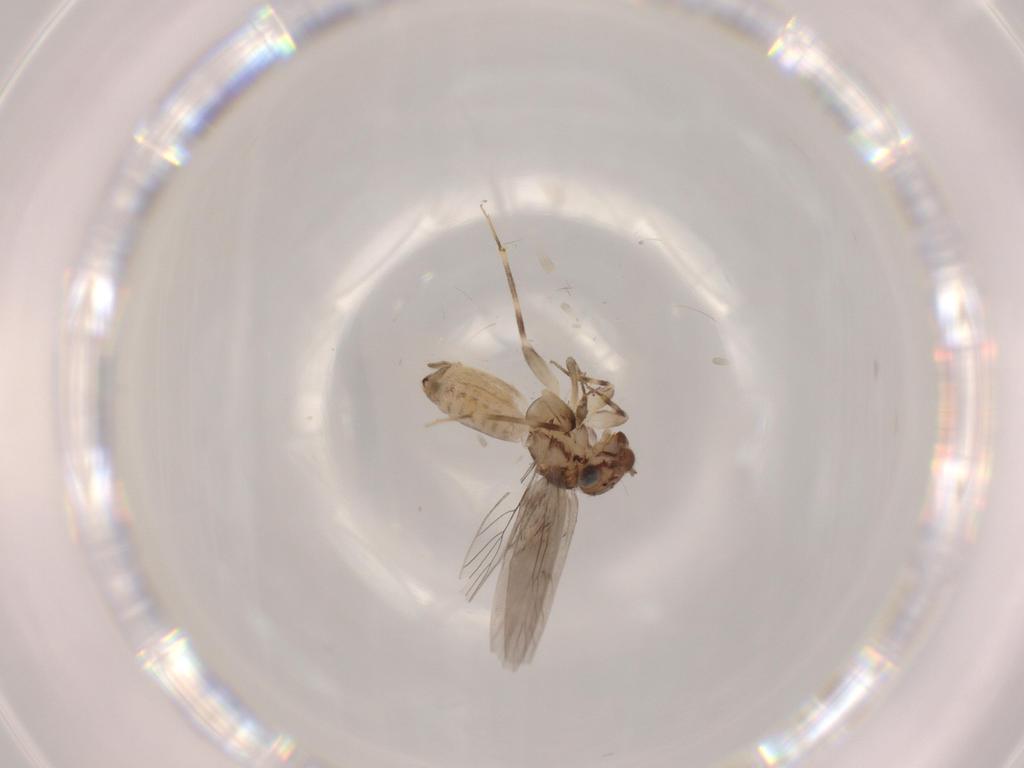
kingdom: Animalia
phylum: Arthropoda
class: Insecta
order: Psocodea
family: Lepidopsocidae
